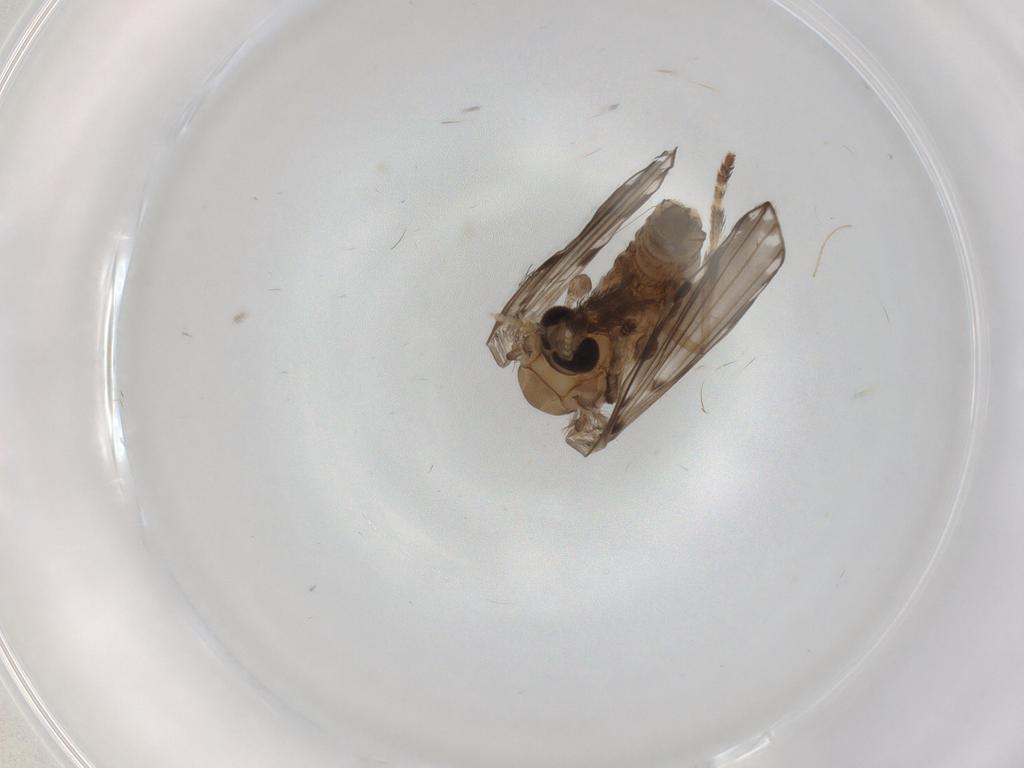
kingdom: Animalia
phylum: Arthropoda
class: Insecta
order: Diptera
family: Psychodidae
